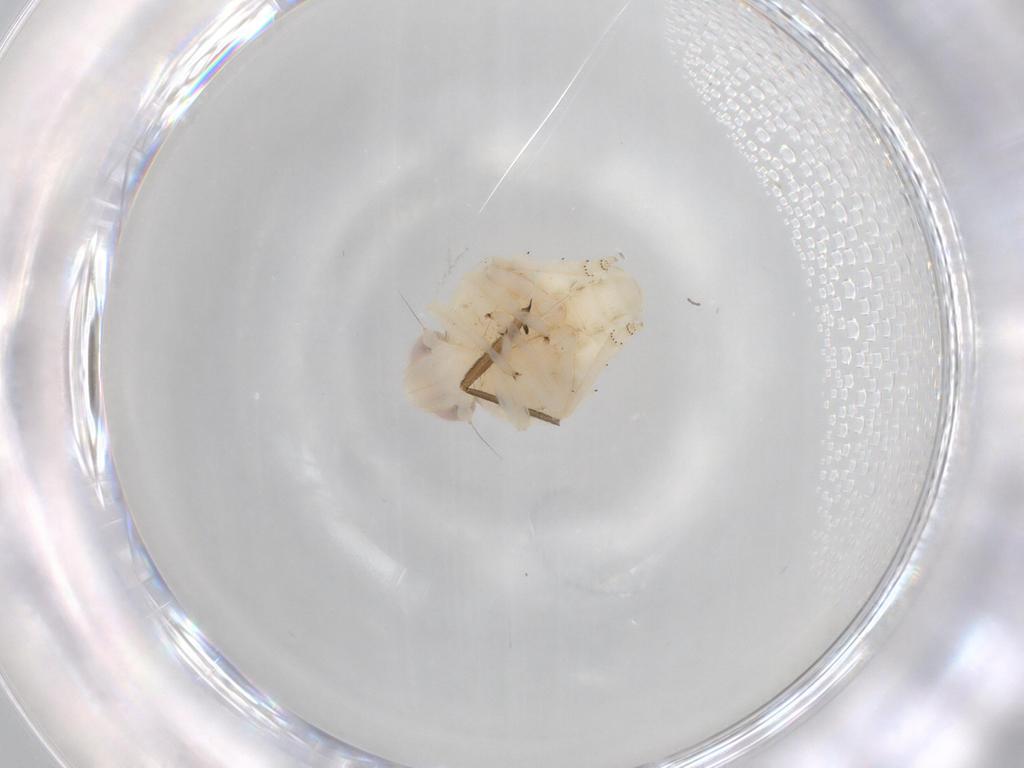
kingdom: Animalia
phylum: Arthropoda
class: Insecta
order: Hemiptera
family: Nogodinidae
